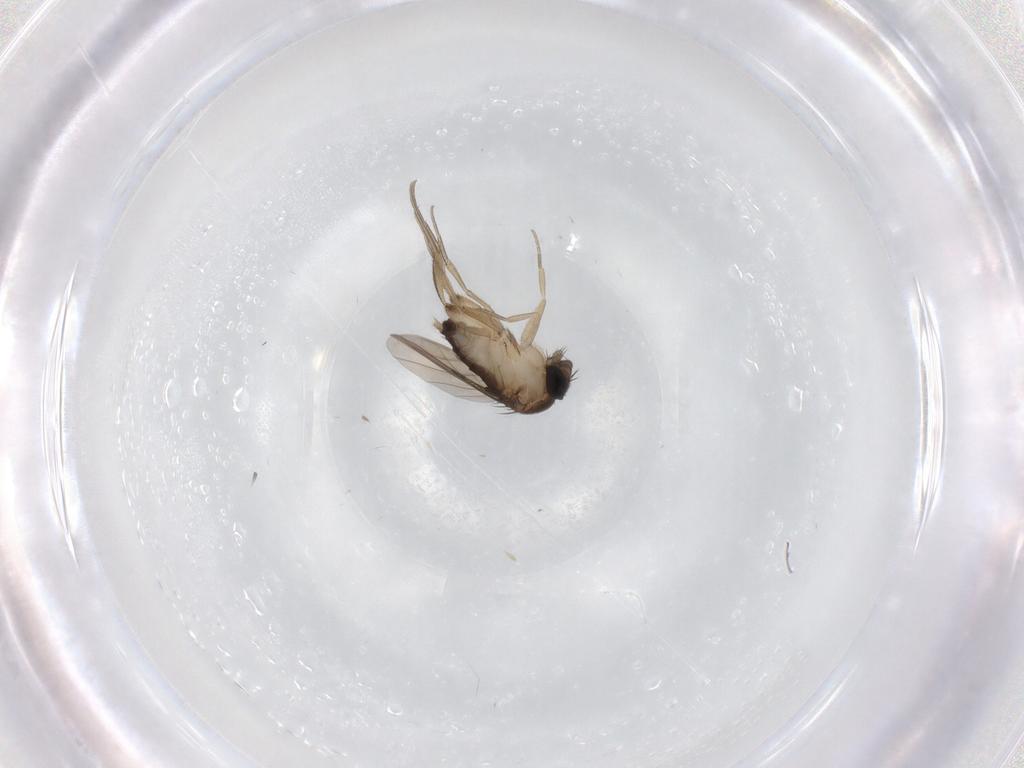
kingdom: Animalia
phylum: Arthropoda
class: Insecta
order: Diptera
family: Phoridae
